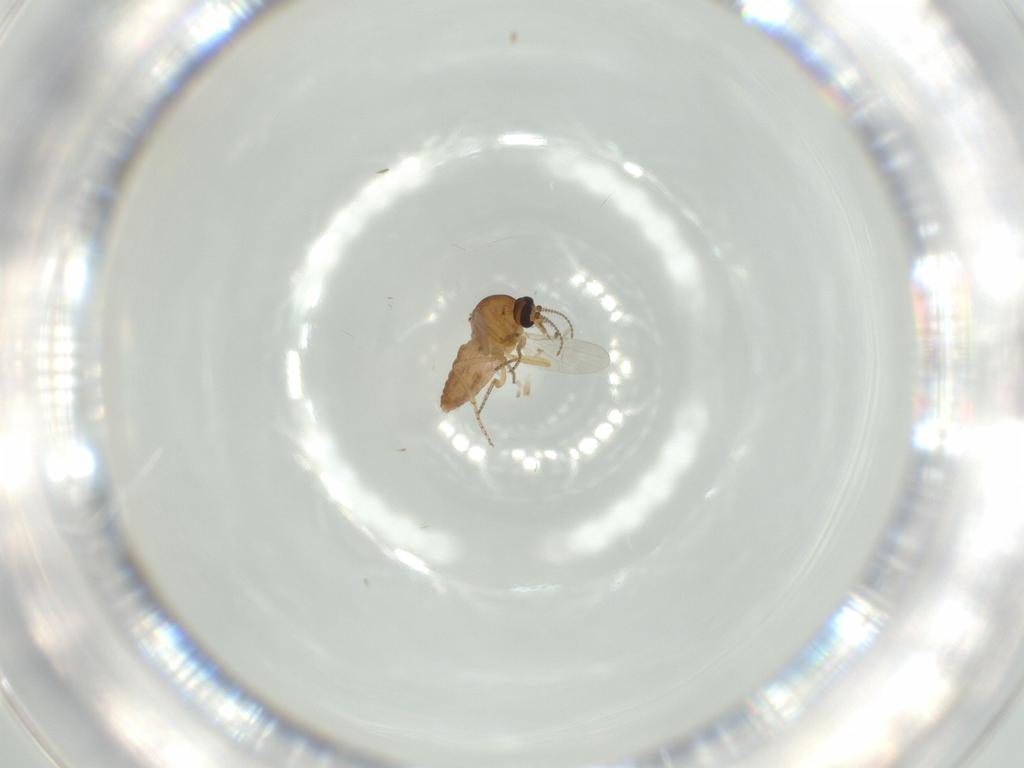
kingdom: Animalia
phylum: Arthropoda
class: Insecta
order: Diptera
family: Ceratopogonidae
